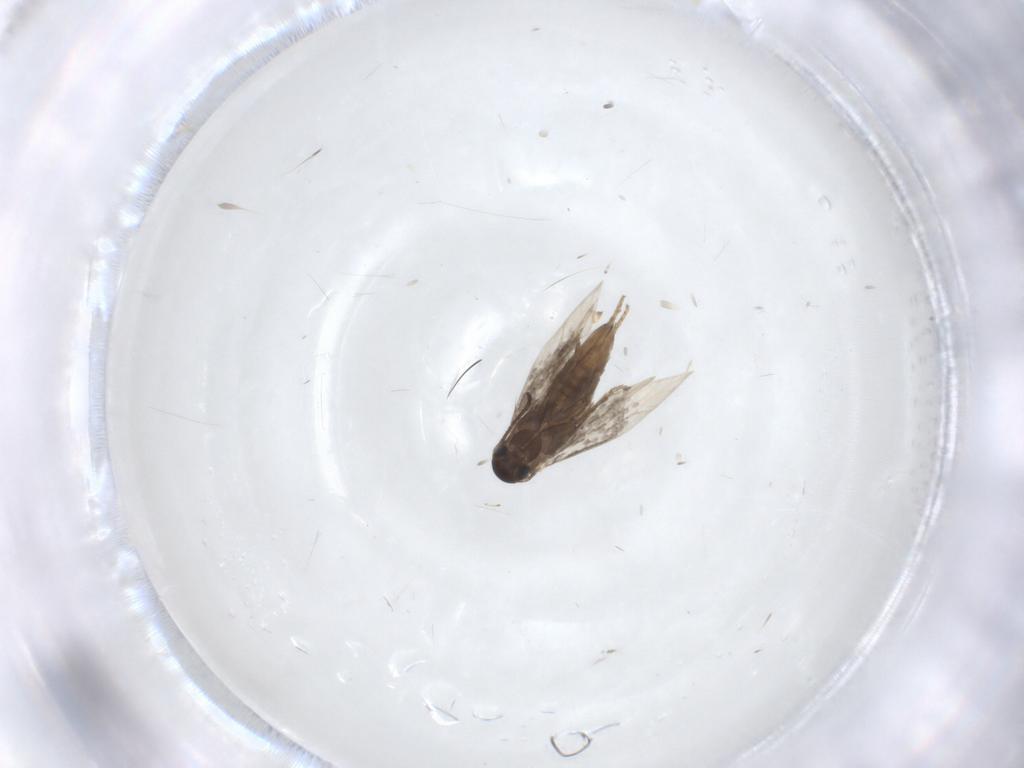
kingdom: Animalia
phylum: Arthropoda
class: Insecta
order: Lepidoptera
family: Heliozelidae
